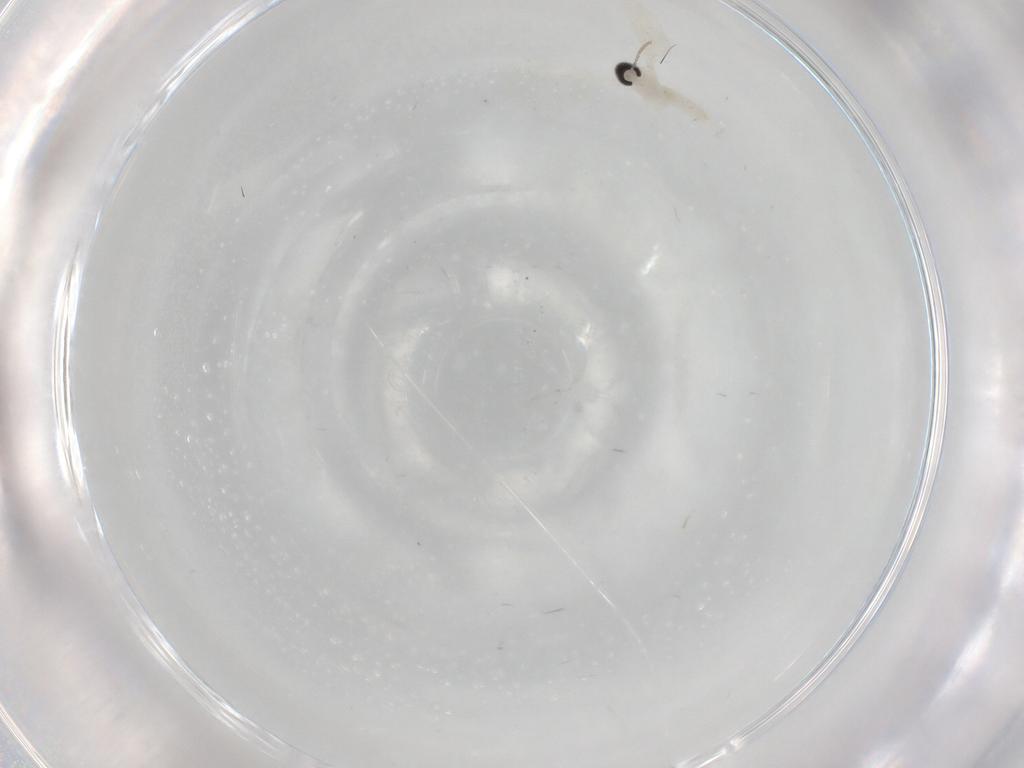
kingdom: Animalia
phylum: Arthropoda
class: Insecta
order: Diptera
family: Cecidomyiidae
